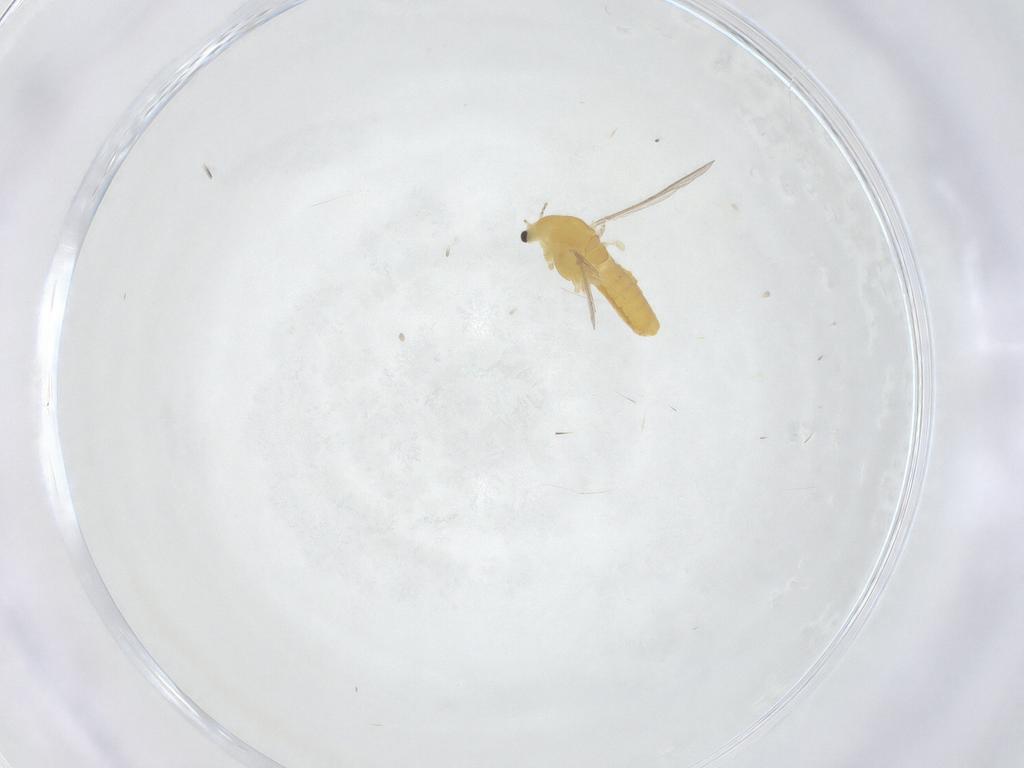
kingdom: Animalia
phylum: Arthropoda
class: Insecta
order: Diptera
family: Chironomidae
